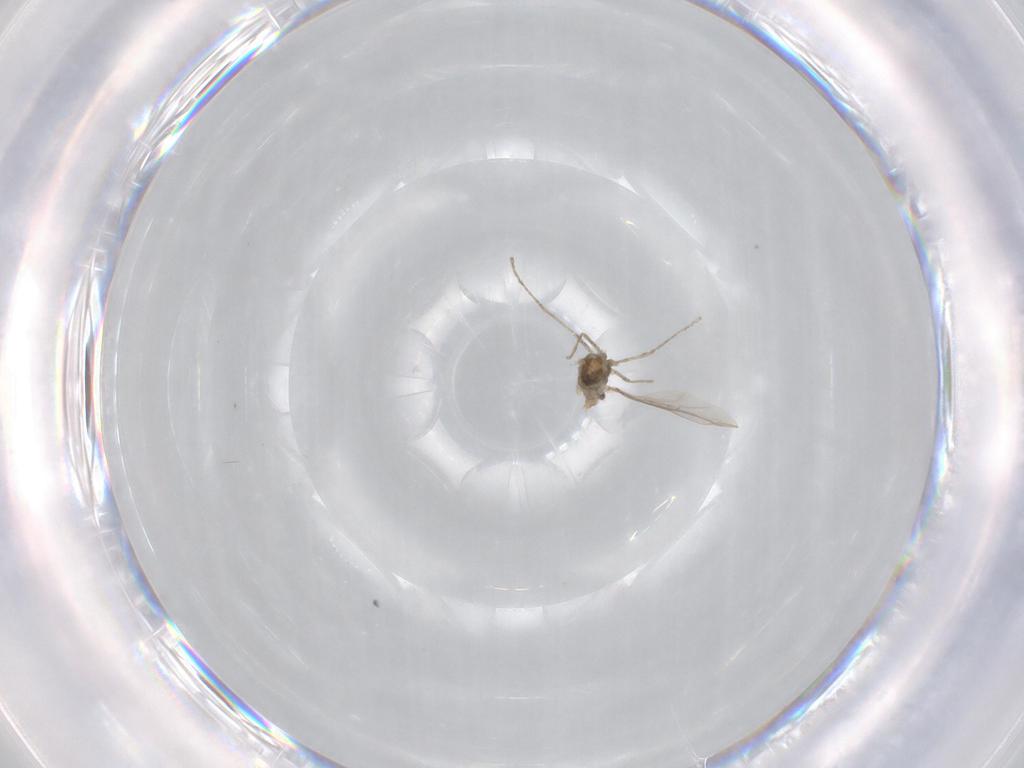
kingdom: Animalia
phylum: Arthropoda
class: Insecta
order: Diptera
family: Cecidomyiidae
